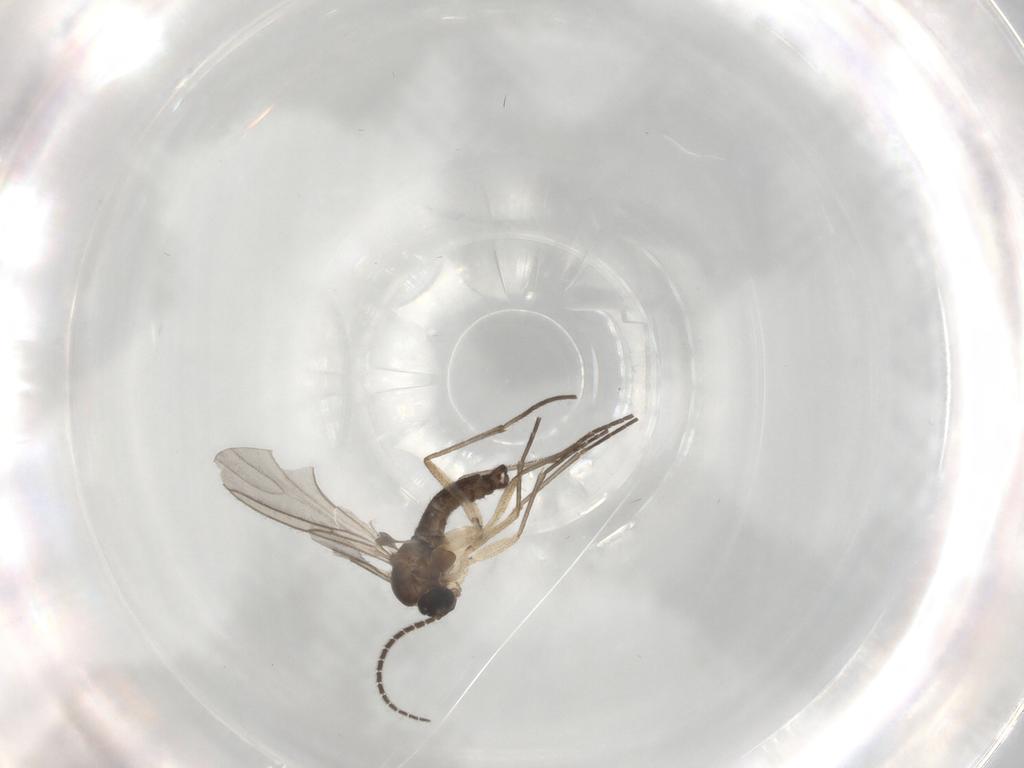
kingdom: Animalia
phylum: Arthropoda
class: Insecta
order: Diptera
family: Sciaridae
